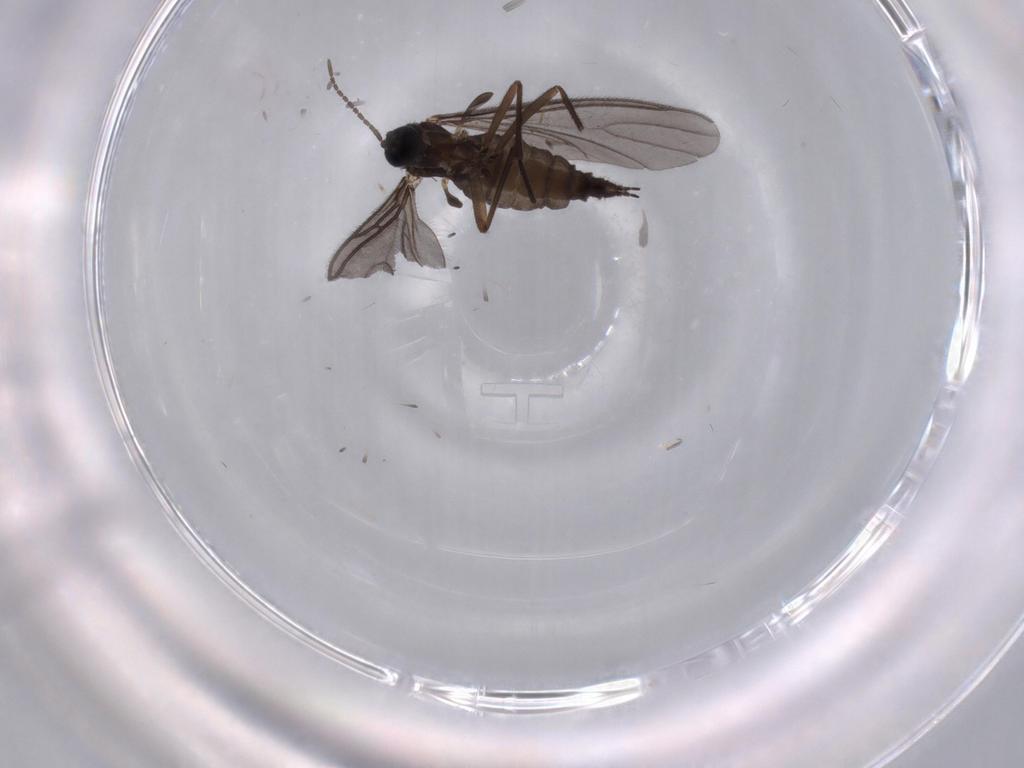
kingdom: Animalia
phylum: Arthropoda
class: Insecta
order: Diptera
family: Sciaridae
